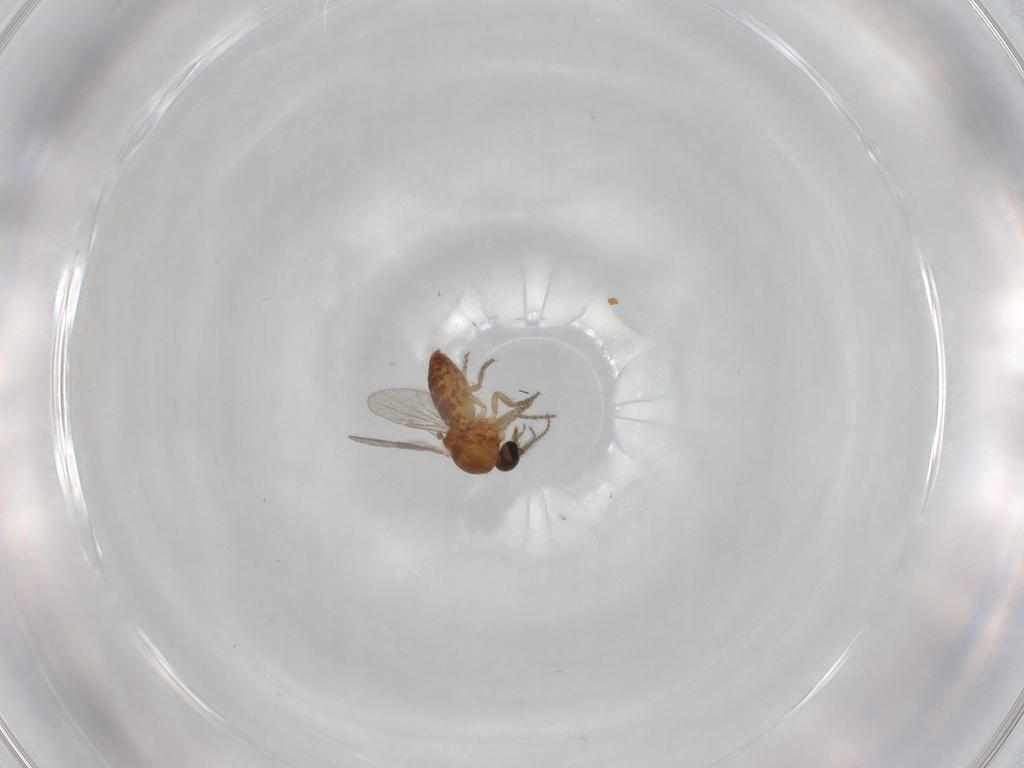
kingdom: Animalia
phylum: Arthropoda
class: Insecta
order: Diptera
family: Ceratopogonidae
